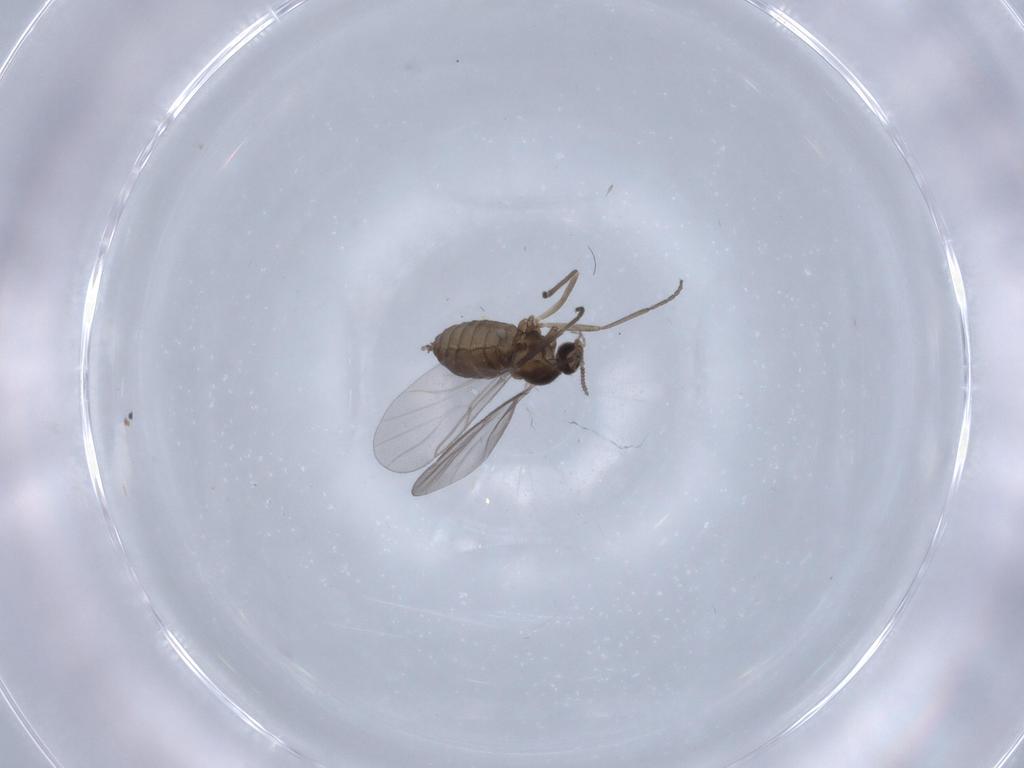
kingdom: Animalia
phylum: Arthropoda
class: Insecta
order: Diptera
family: Cecidomyiidae
